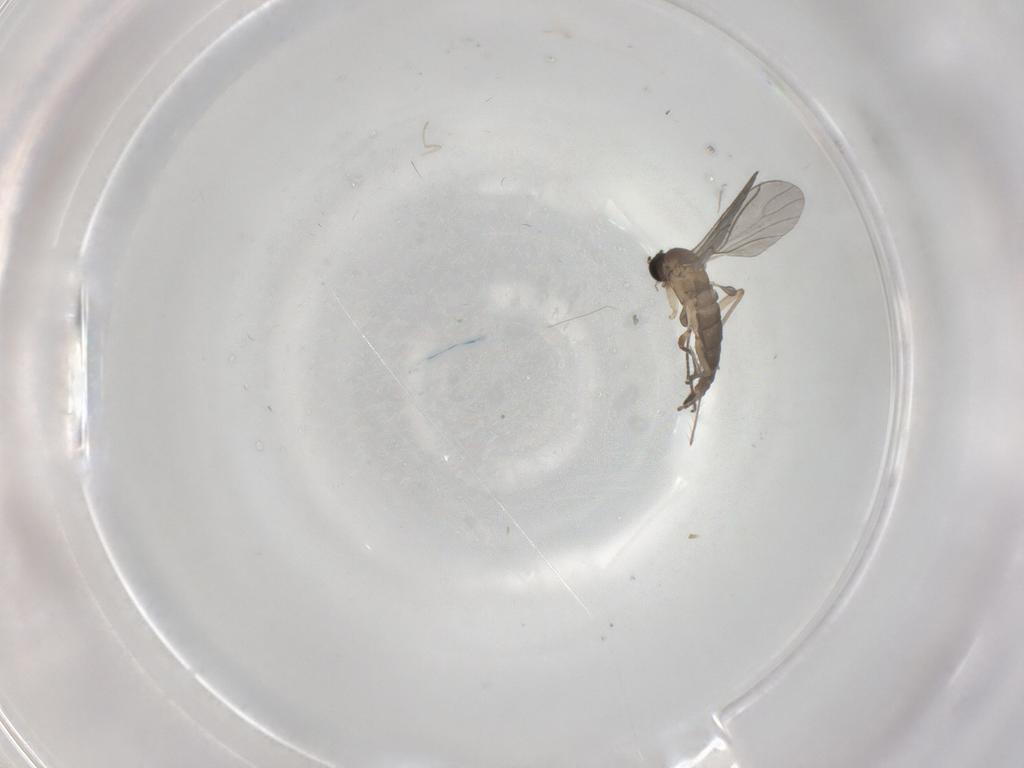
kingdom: Animalia
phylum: Arthropoda
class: Insecta
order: Diptera
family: Sciaridae
